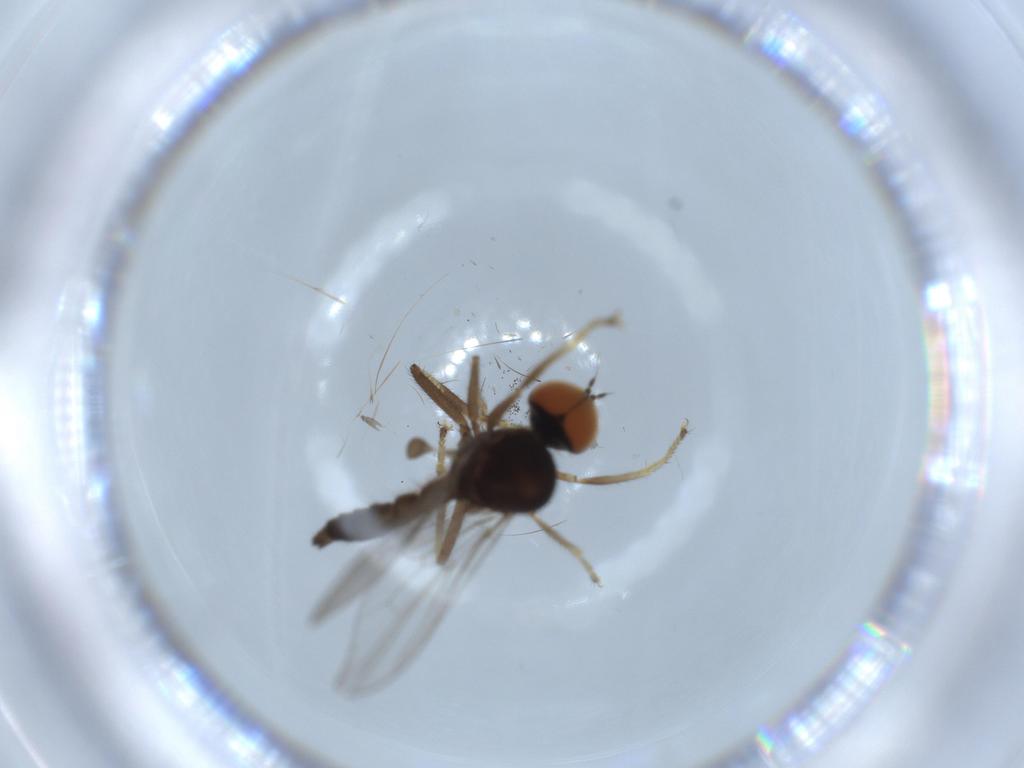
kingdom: Animalia
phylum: Arthropoda
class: Insecta
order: Diptera
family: Hybotidae
